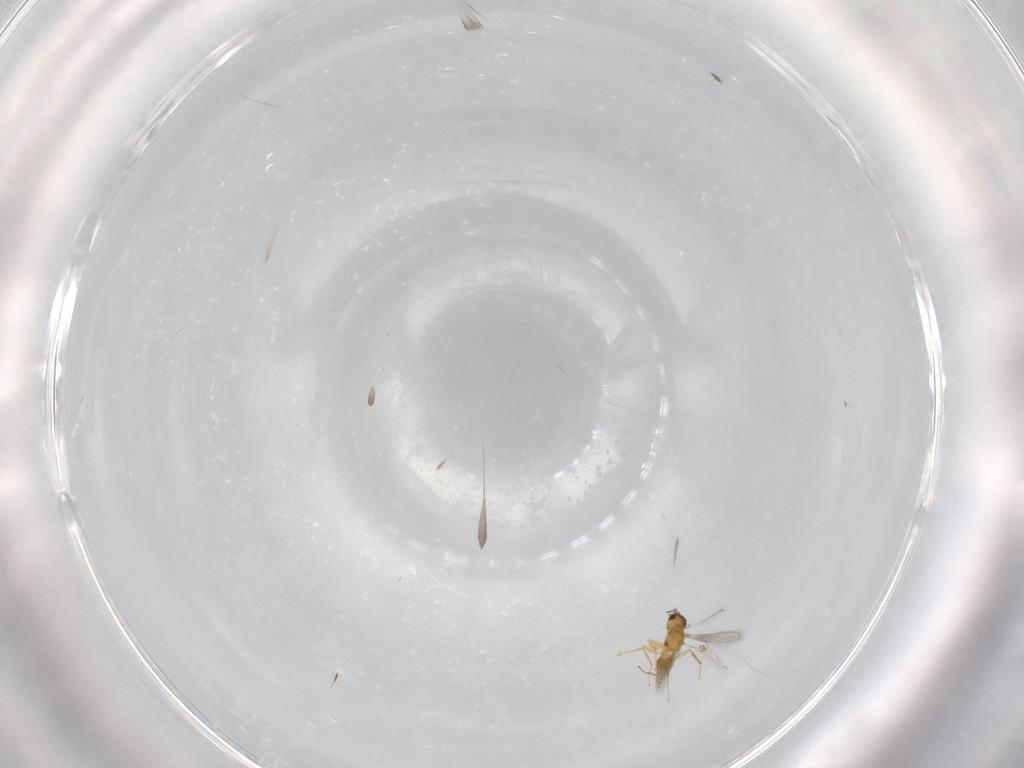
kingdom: Animalia
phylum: Arthropoda
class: Insecta
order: Hymenoptera
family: Mymaridae
